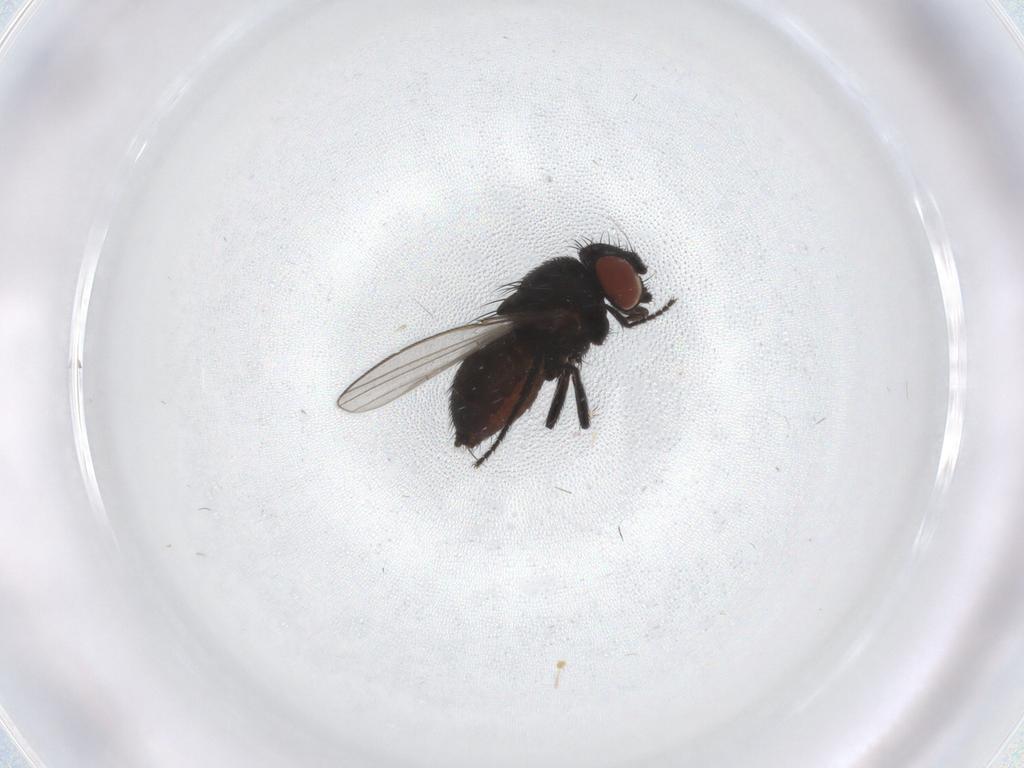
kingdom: Animalia
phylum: Arthropoda
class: Insecta
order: Diptera
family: Milichiidae
